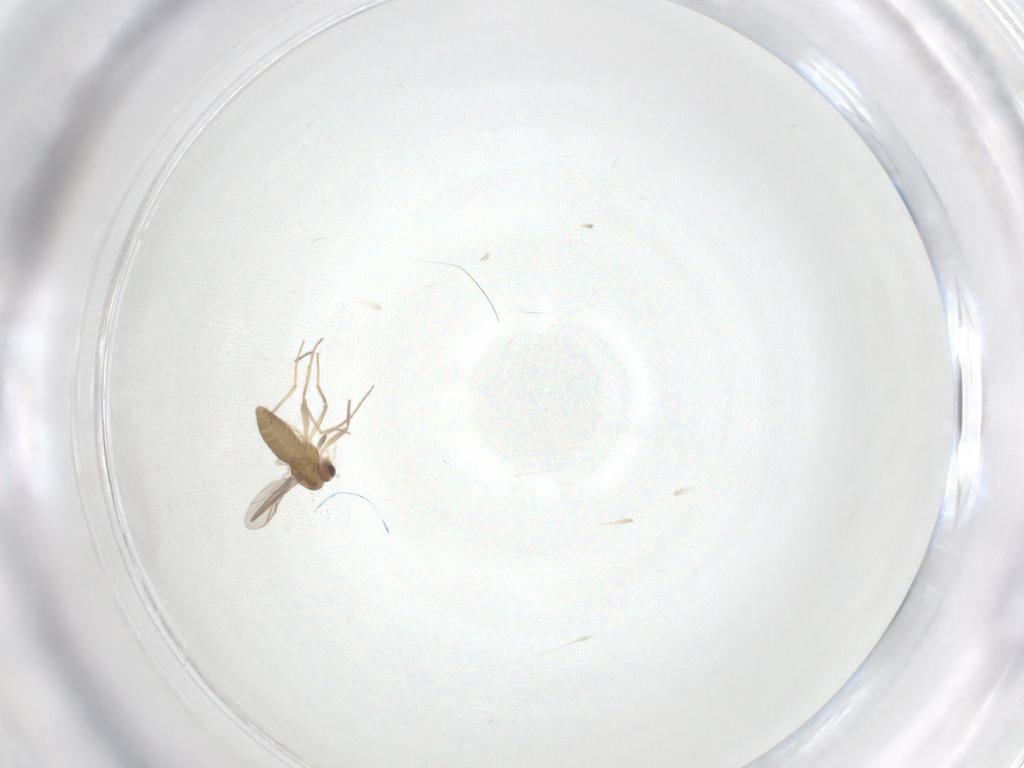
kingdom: Animalia
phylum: Arthropoda
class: Insecta
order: Diptera
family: Chironomidae
